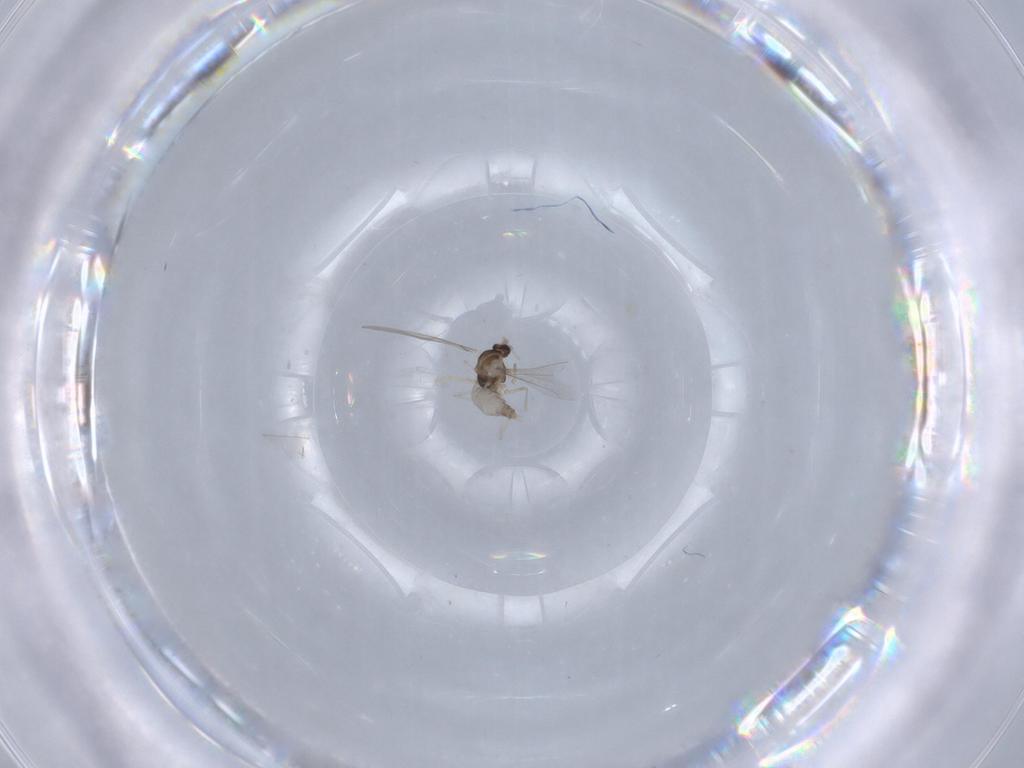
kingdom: Animalia
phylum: Arthropoda
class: Insecta
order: Diptera
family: Cecidomyiidae
